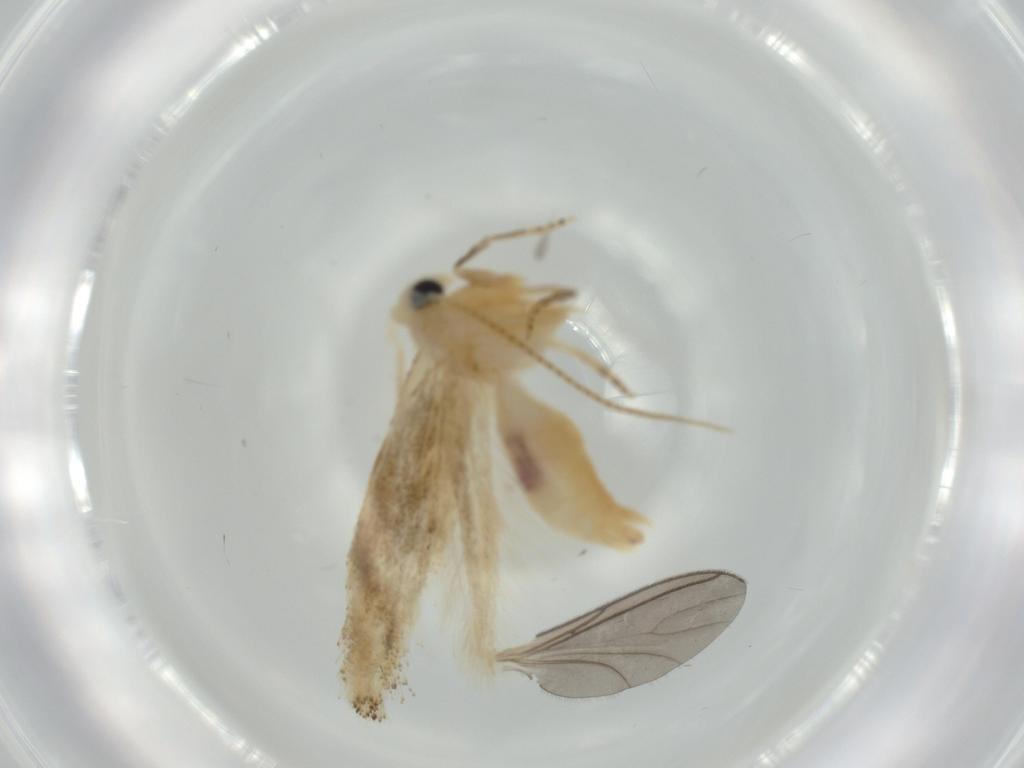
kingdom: Animalia
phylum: Arthropoda
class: Insecta
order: Lepidoptera
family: Bucculatricidae
